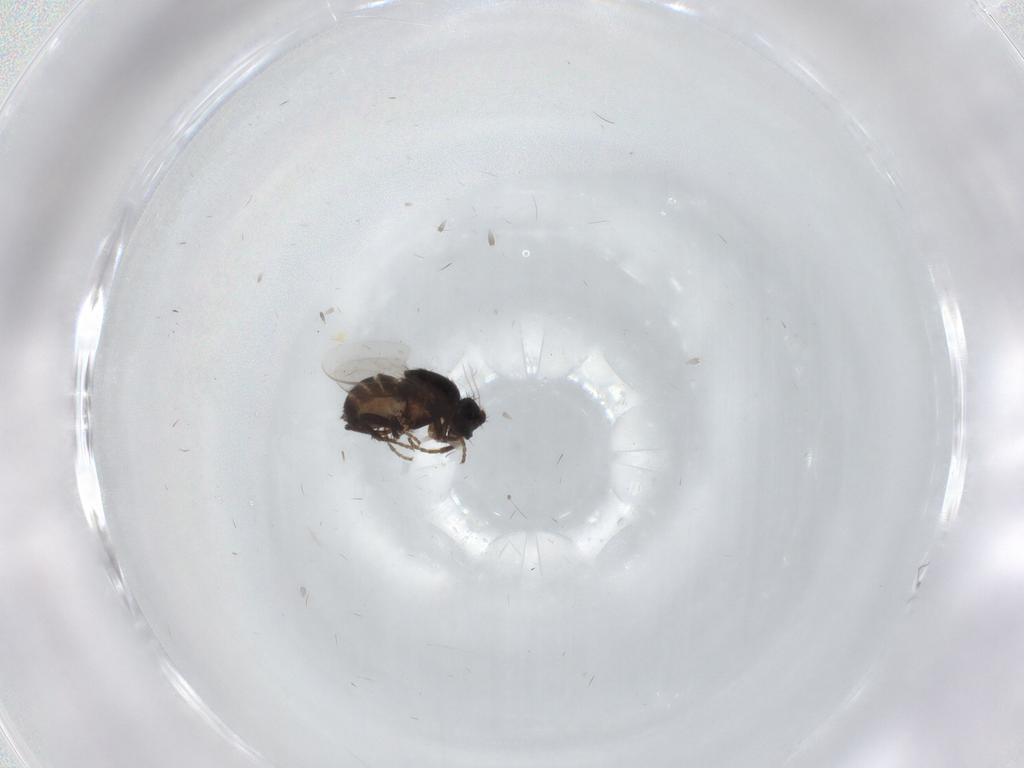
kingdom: Animalia
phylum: Arthropoda
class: Insecta
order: Diptera
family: Sphaeroceridae
